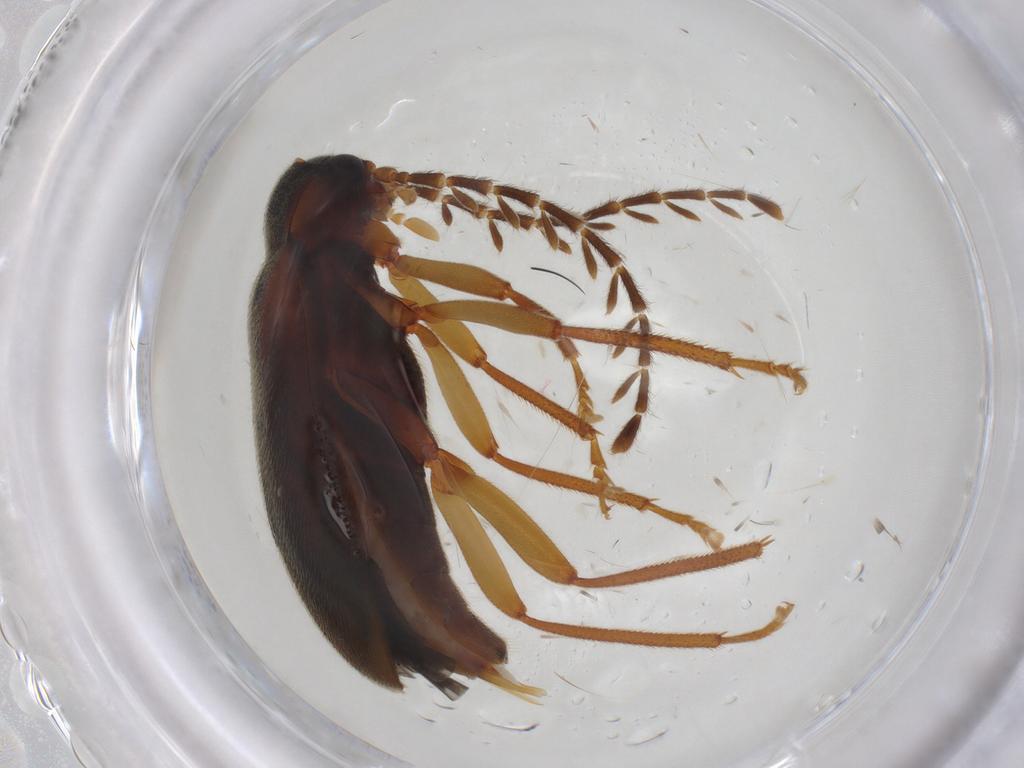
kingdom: Animalia
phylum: Arthropoda
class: Insecta
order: Coleoptera
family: Ptilodactylidae
